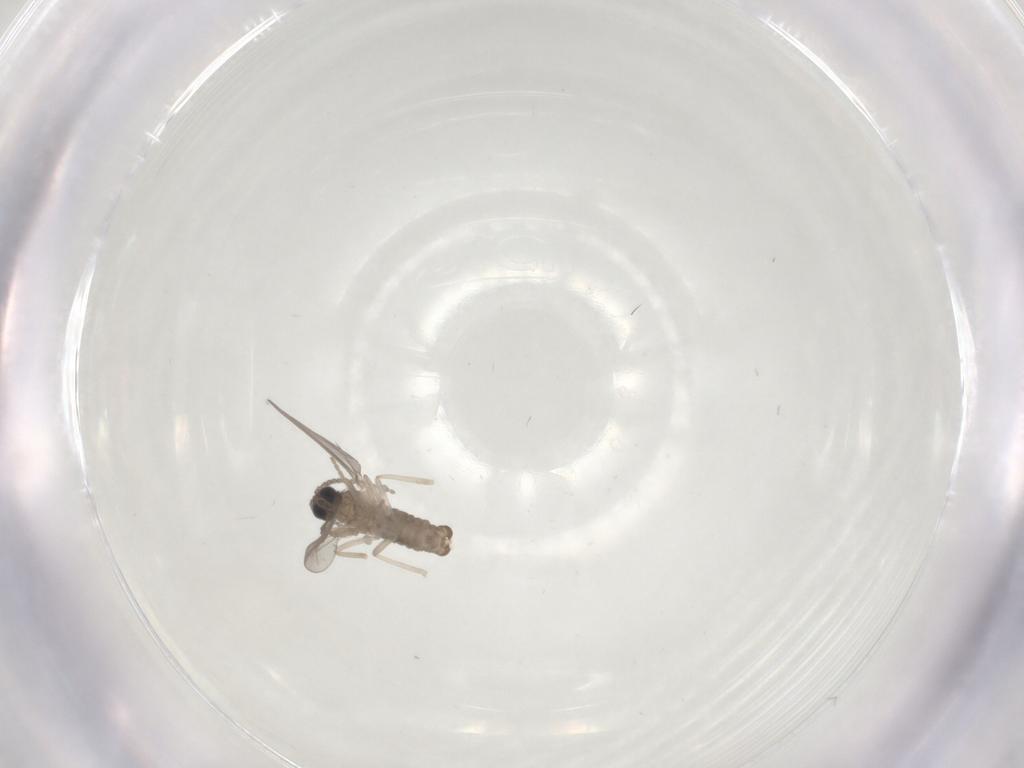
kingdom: Animalia
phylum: Arthropoda
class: Insecta
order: Diptera
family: Cecidomyiidae
